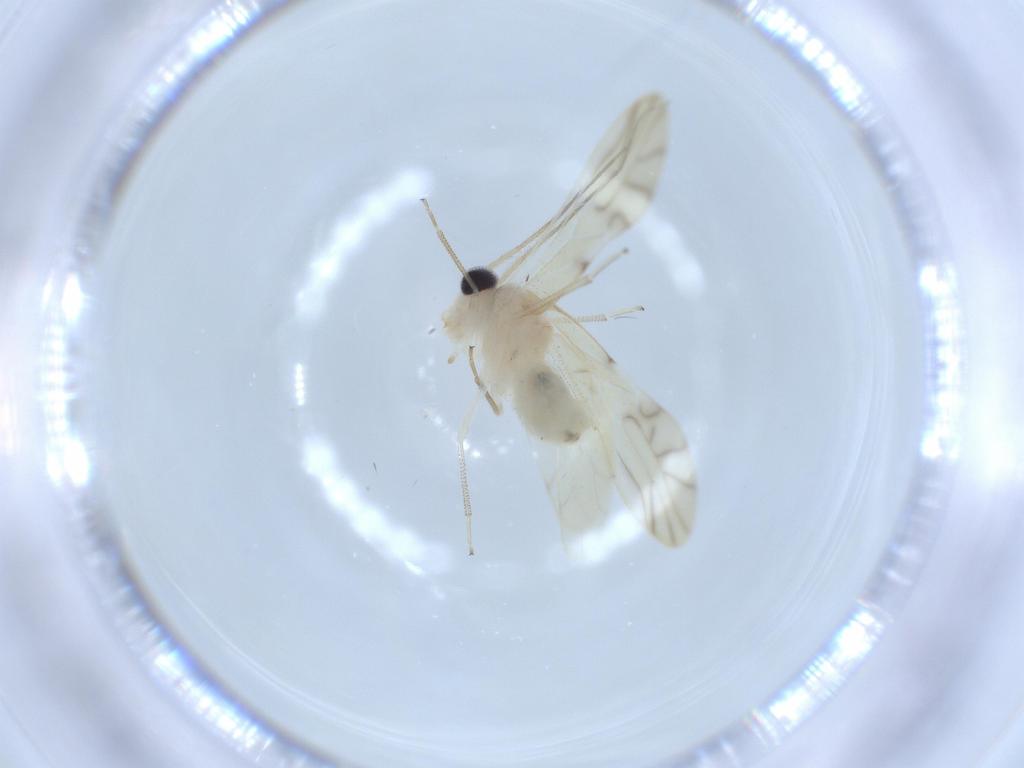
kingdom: Animalia
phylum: Arthropoda
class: Insecta
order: Psocodea
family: Caeciliusidae
